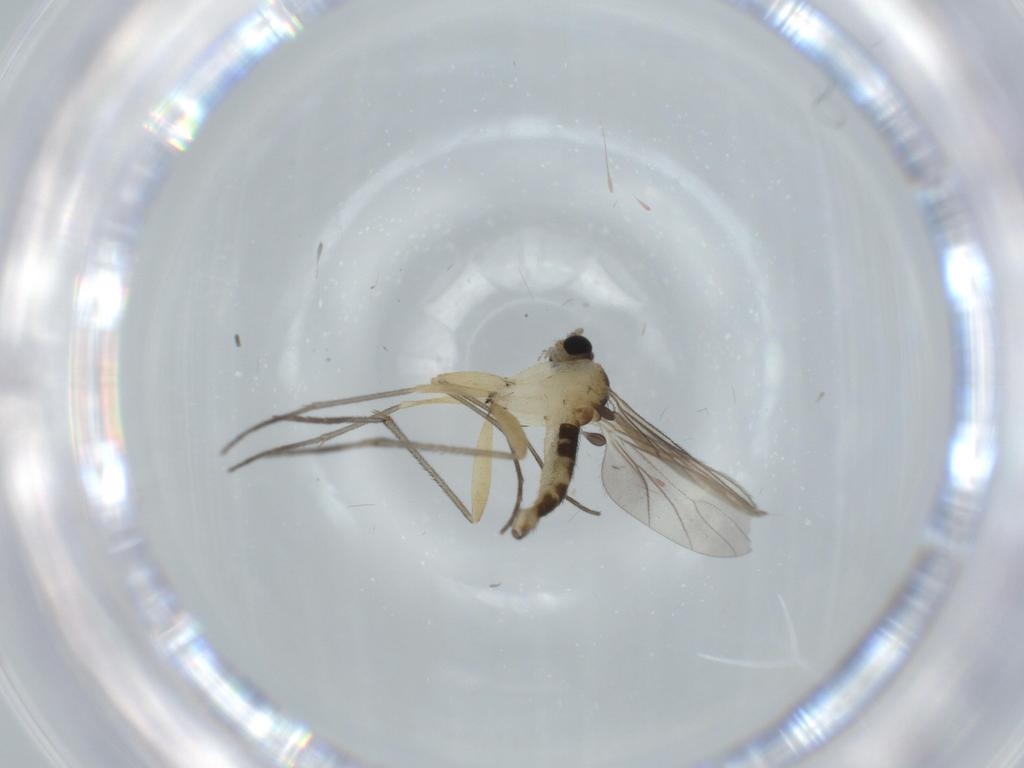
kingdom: Animalia
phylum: Arthropoda
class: Insecta
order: Diptera
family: Sciaridae
